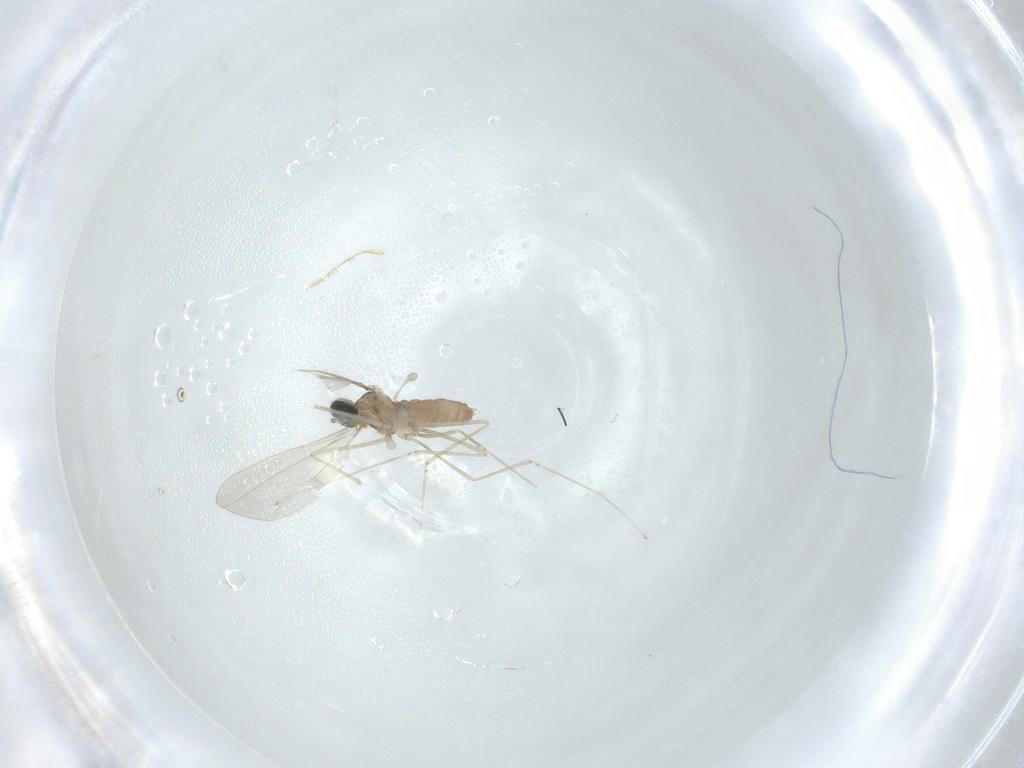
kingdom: Animalia
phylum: Arthropoda
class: Insecta
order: Diptera
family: Cecidomyiidae
